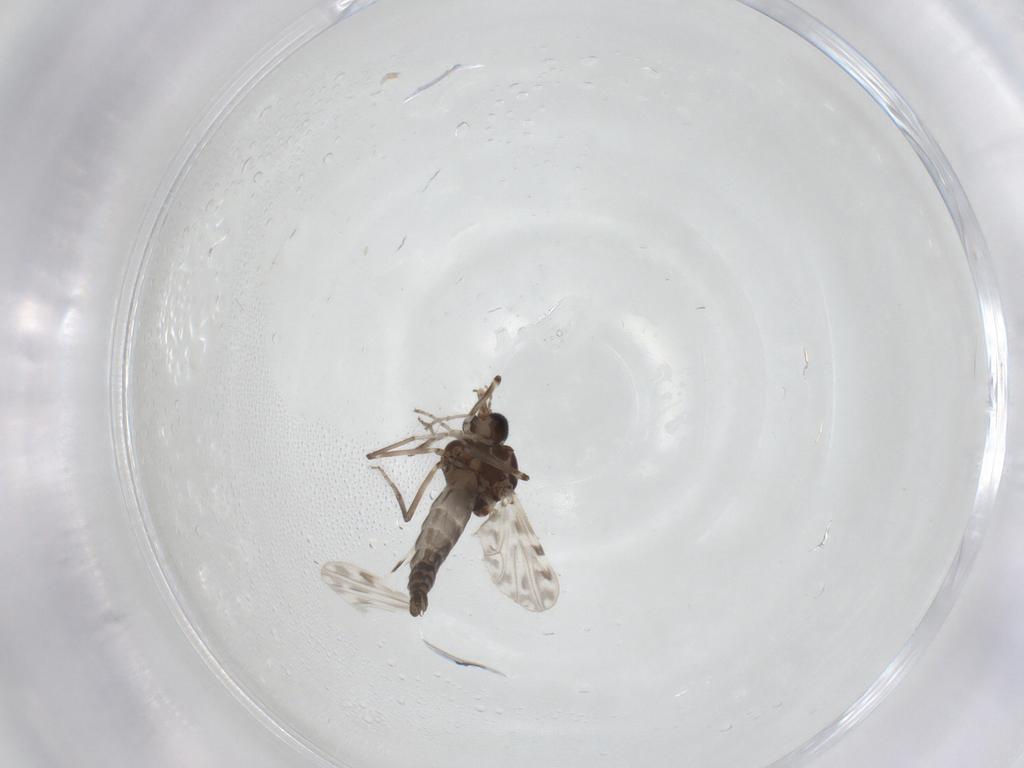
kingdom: Animalia
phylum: Arthropoda
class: Insecta
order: Diptera
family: Ceratopogonidae
